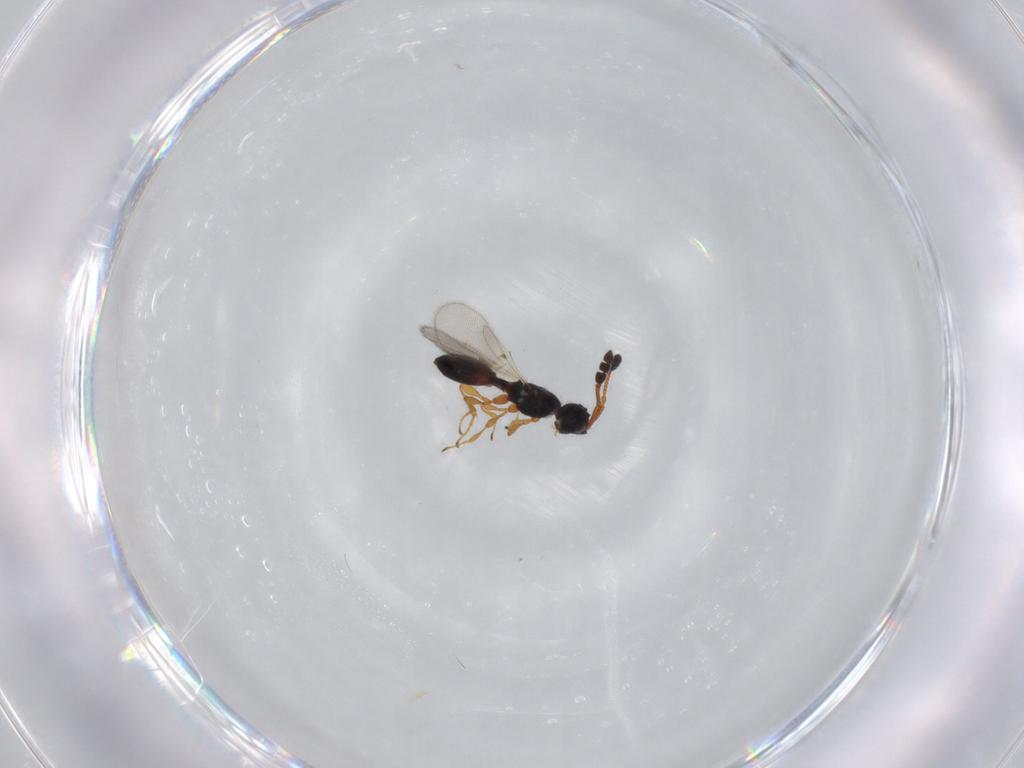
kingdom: Animalia
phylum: Arthropoda
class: Insecta
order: Hymenoptera
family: Diapriidae
